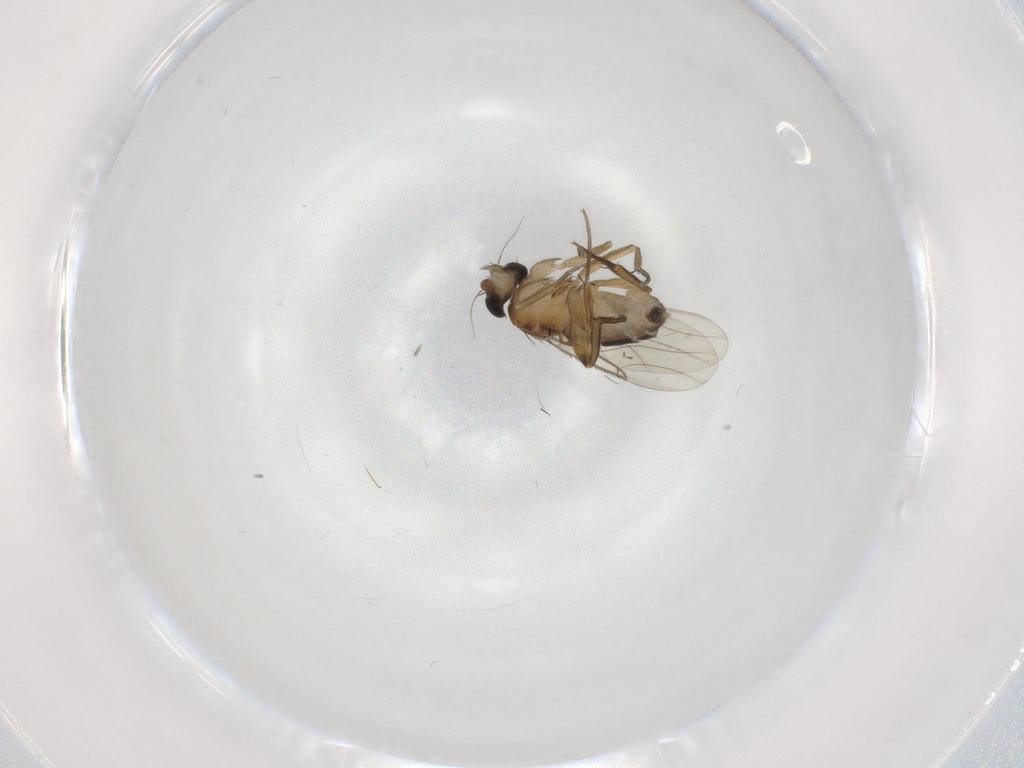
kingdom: Animalia
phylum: Arthropoda
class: Insecta
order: Diptera
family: Phoridae
